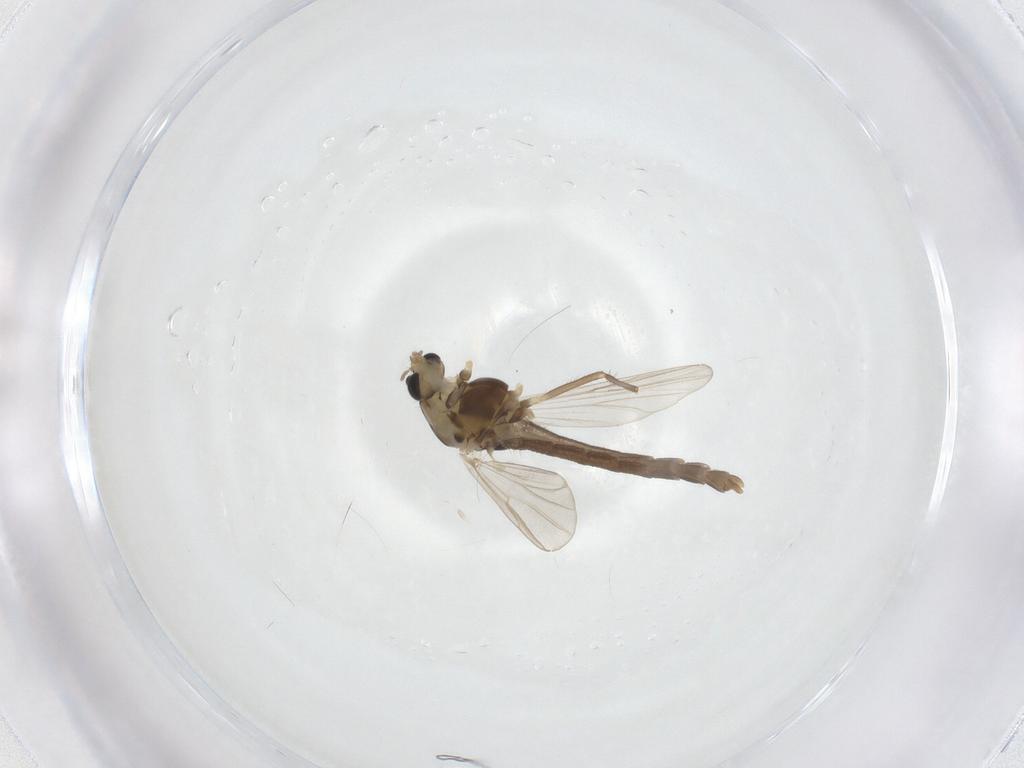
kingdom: Animalia
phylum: Arthropoda
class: Insecta
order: Diptera
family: Chironomidae
